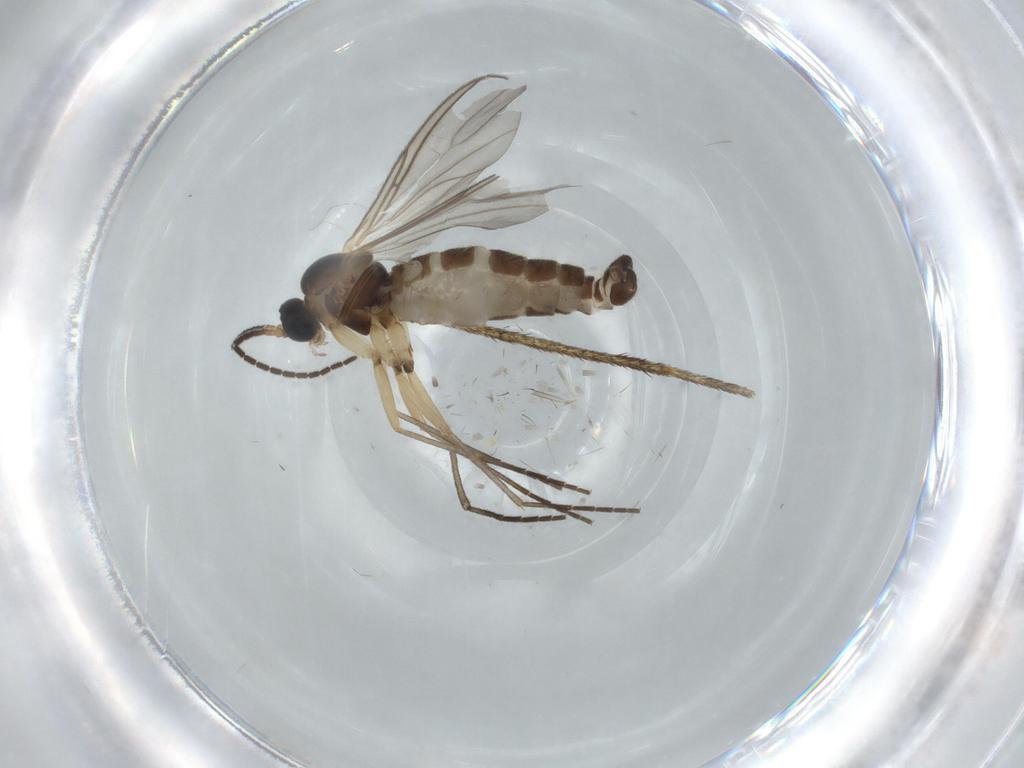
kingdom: Animalia
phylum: Arthropoda
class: Insecta
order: Diptera
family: Sciaridae
